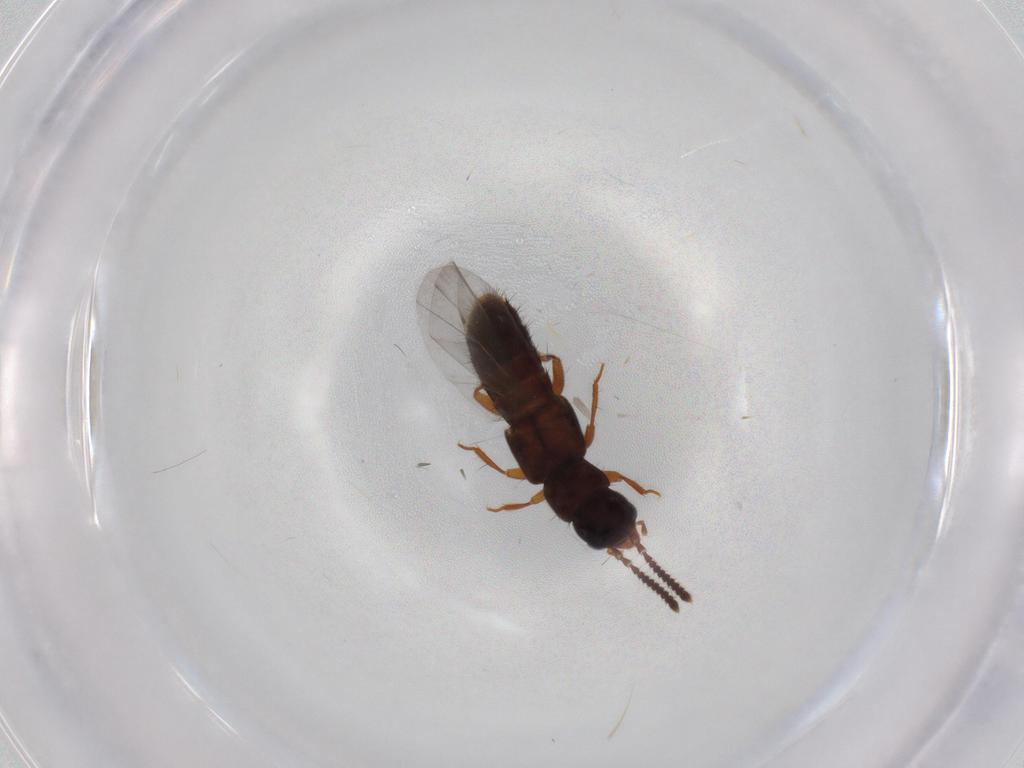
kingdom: Animalia
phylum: Arthropoda
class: Insecta
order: Coleoptera
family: Staphylinidae
